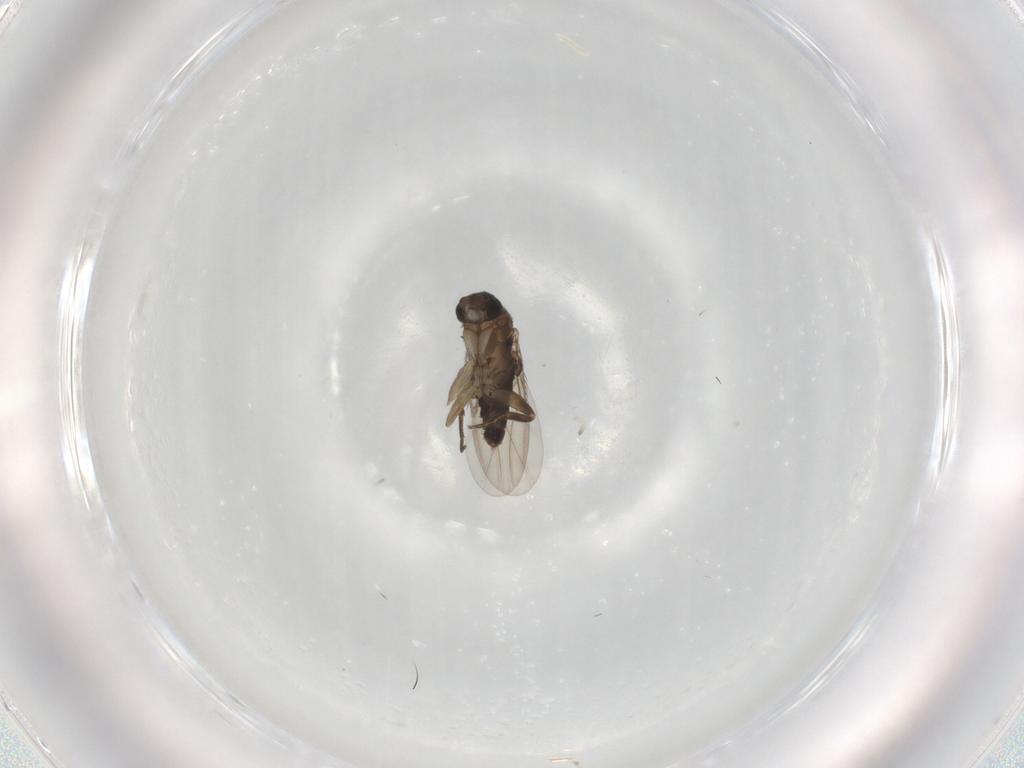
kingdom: Animalia
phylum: Arthropoda
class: Insecta
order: Diptera
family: Phoridae
